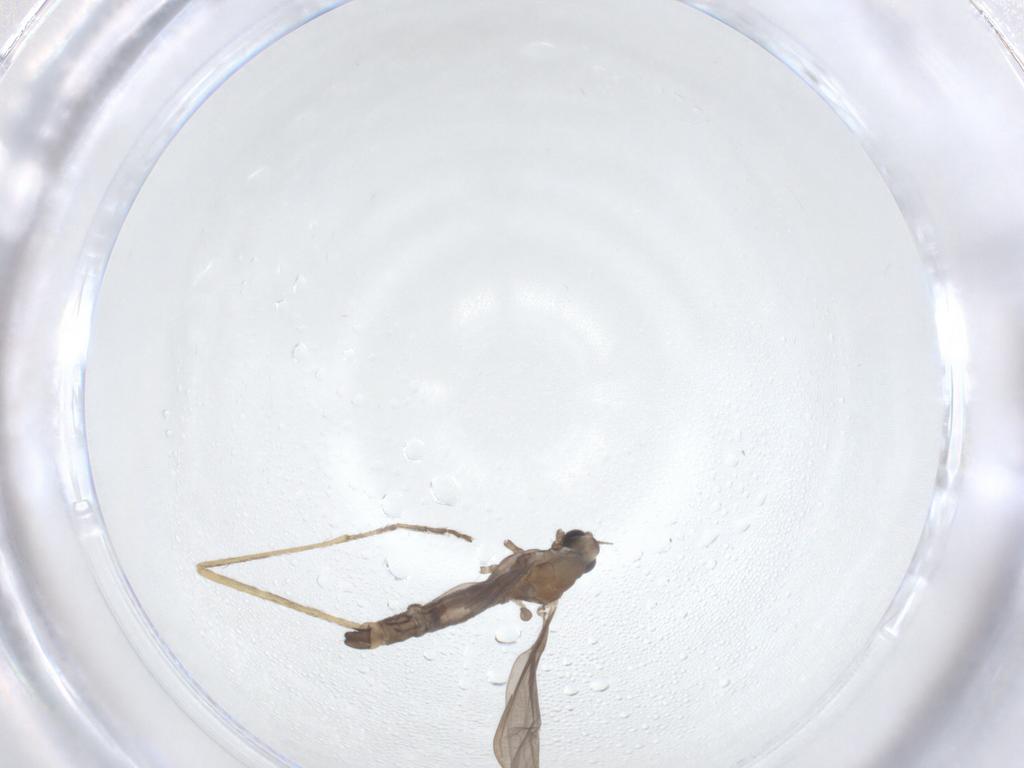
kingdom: Animalia
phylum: Arthropoda
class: Insecta
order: Diptera
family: Limoniidae
